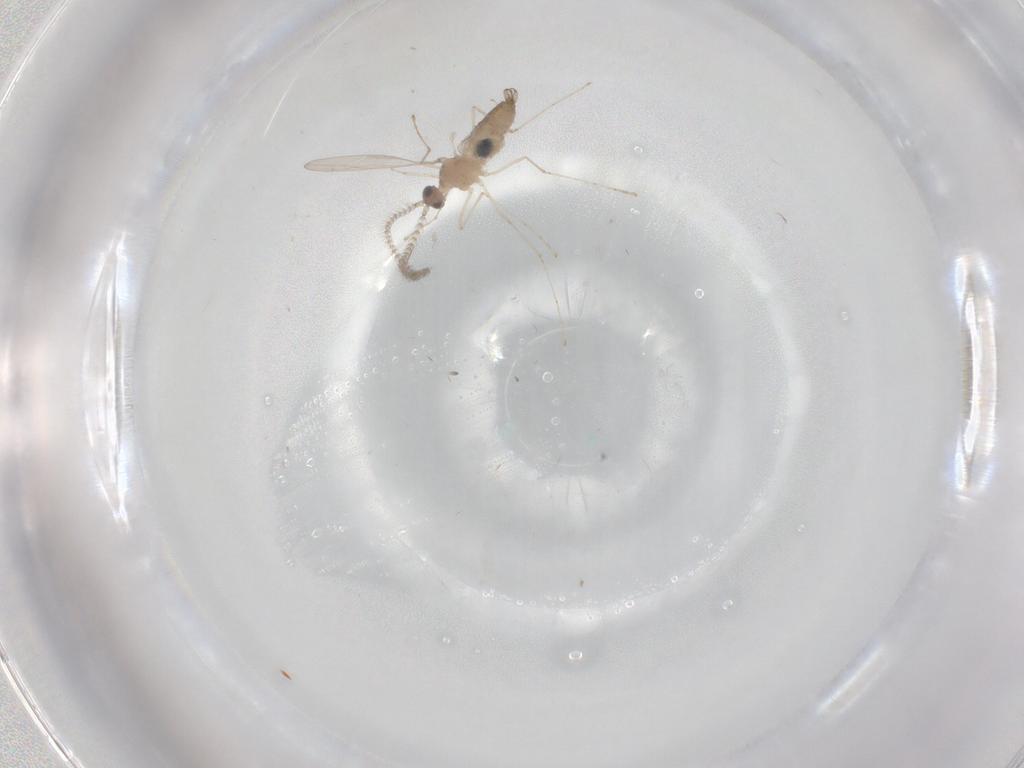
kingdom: Animalia
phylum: Arthropoda
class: Insecta
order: Diptera
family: Cecidomyiidae
